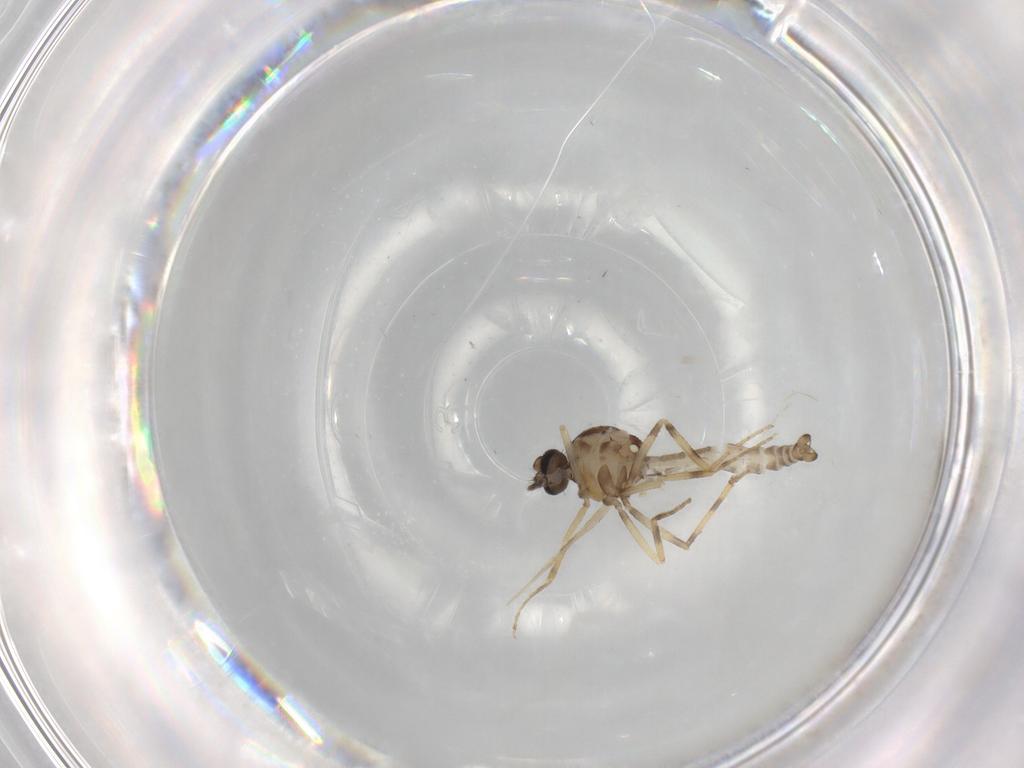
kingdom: Animalia
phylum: Arthropoda
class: Insecta
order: Diptera
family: Ceratopogonidae
